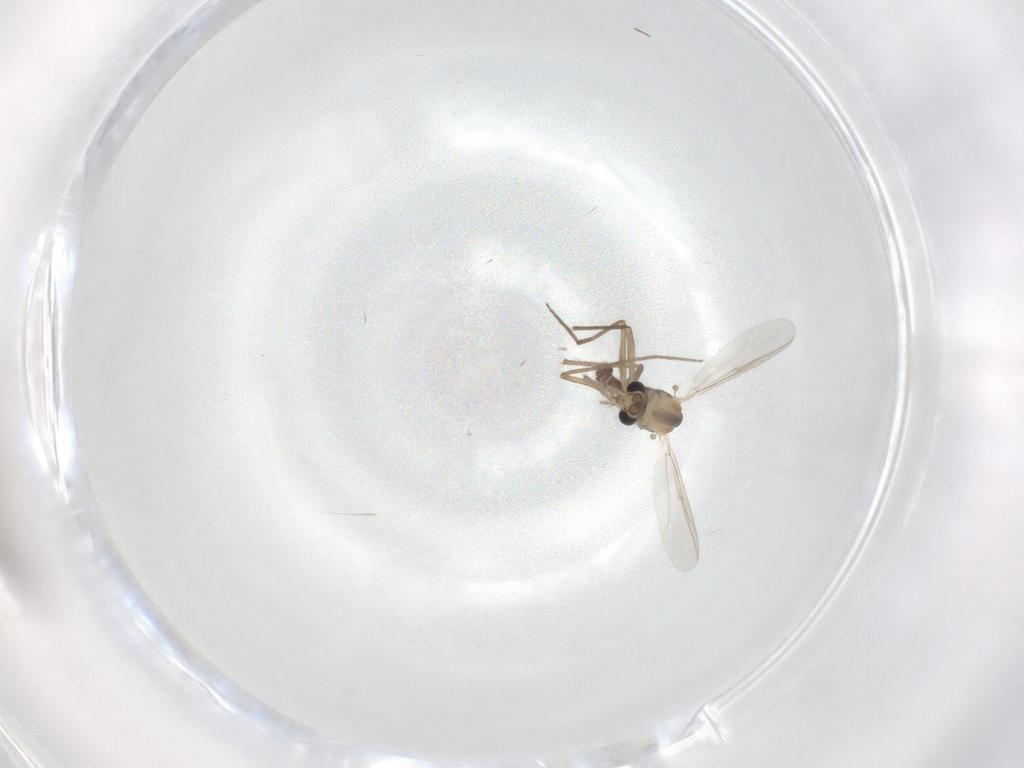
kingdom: Animalia
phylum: Arthropoda
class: Insecta
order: Diptera
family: Chironomidae
